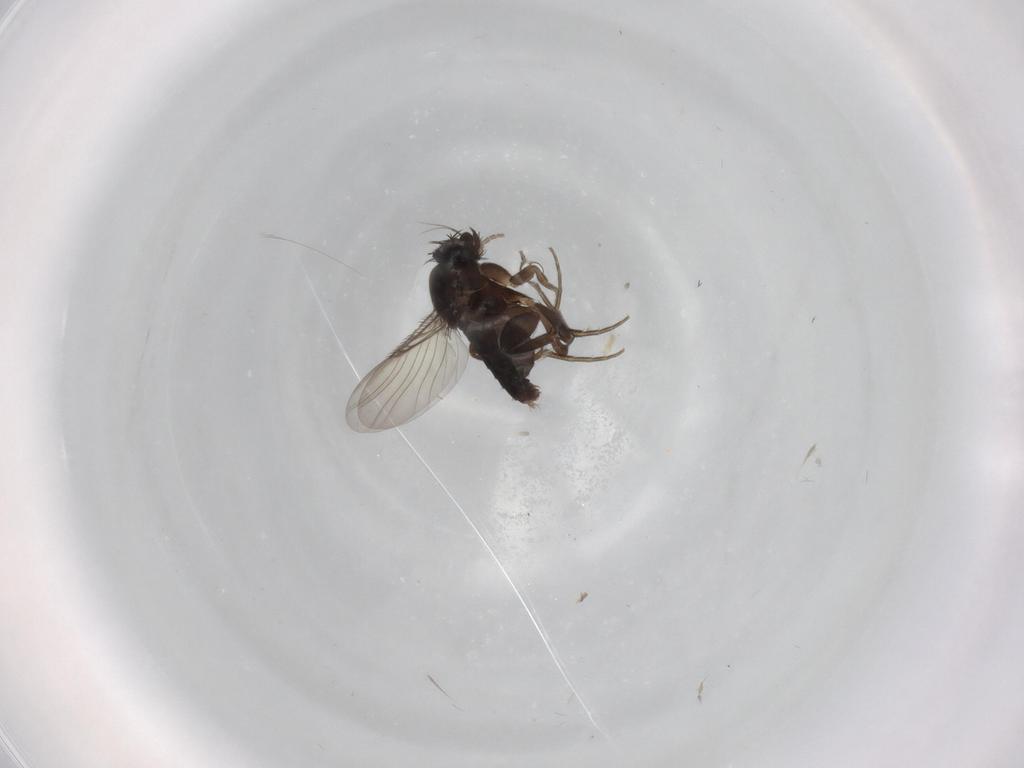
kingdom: Animalia
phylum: Arthropoda
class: Insecta
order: Diptera
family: Phoridae
